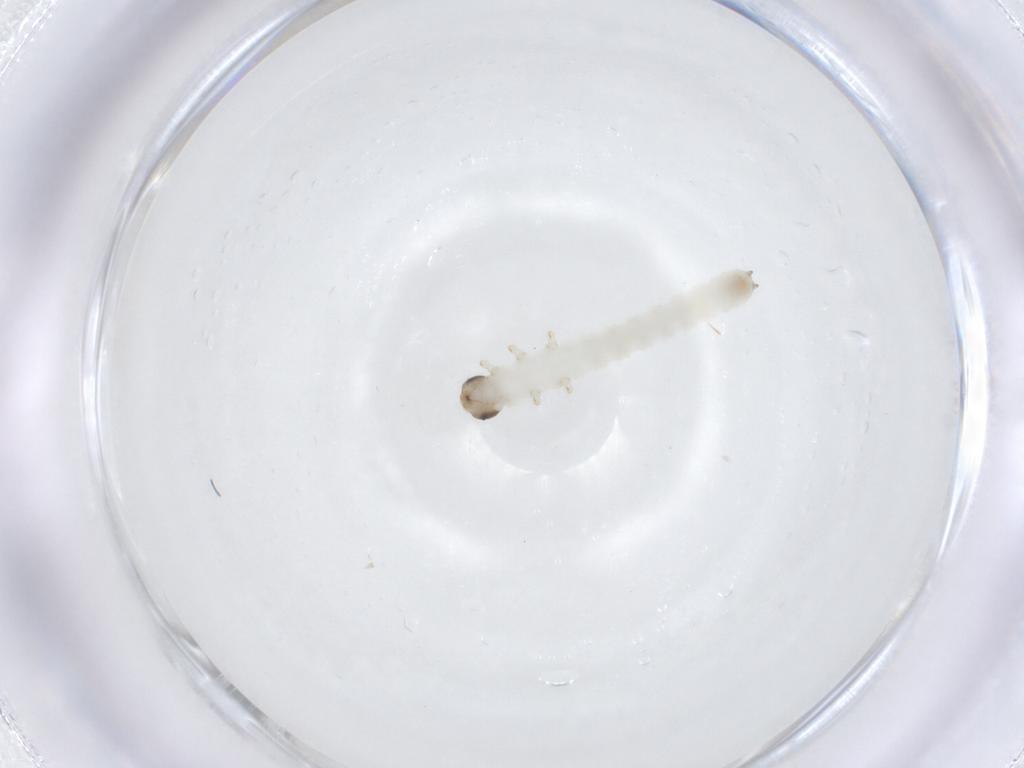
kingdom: Animalia
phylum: Arthropoda
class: Insecta
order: Hymenoptera
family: Tenthredinidae
